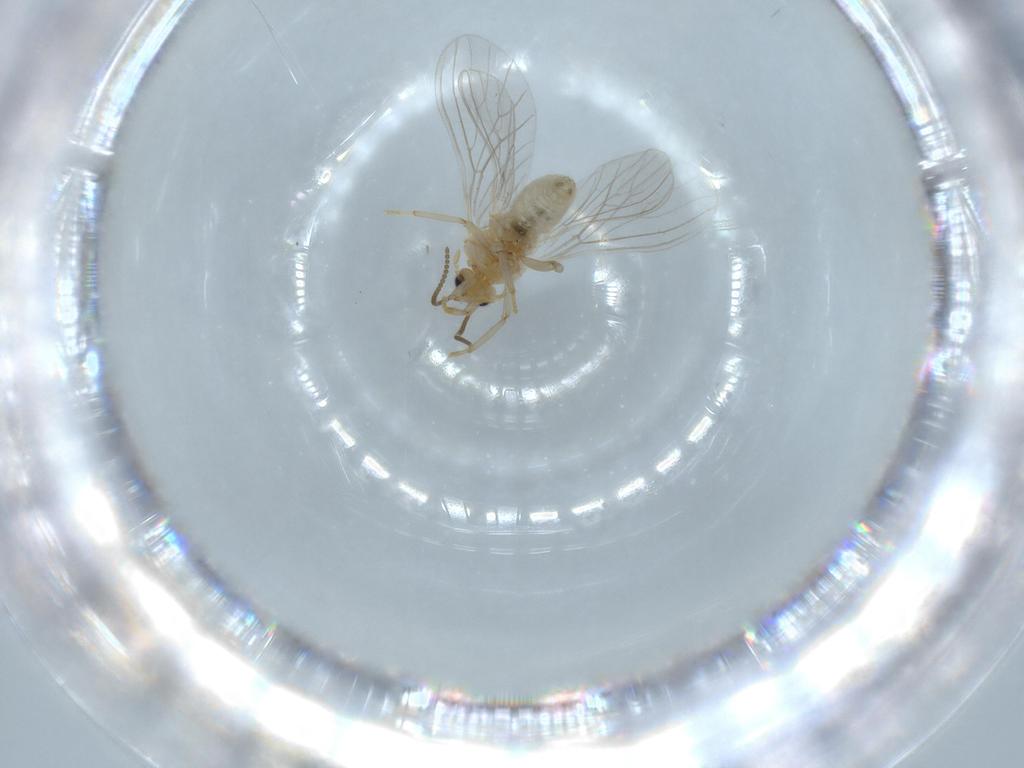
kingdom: Animalia
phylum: Arthropoda
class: Insecta
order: Neuroptera
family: Coniopterygidae
